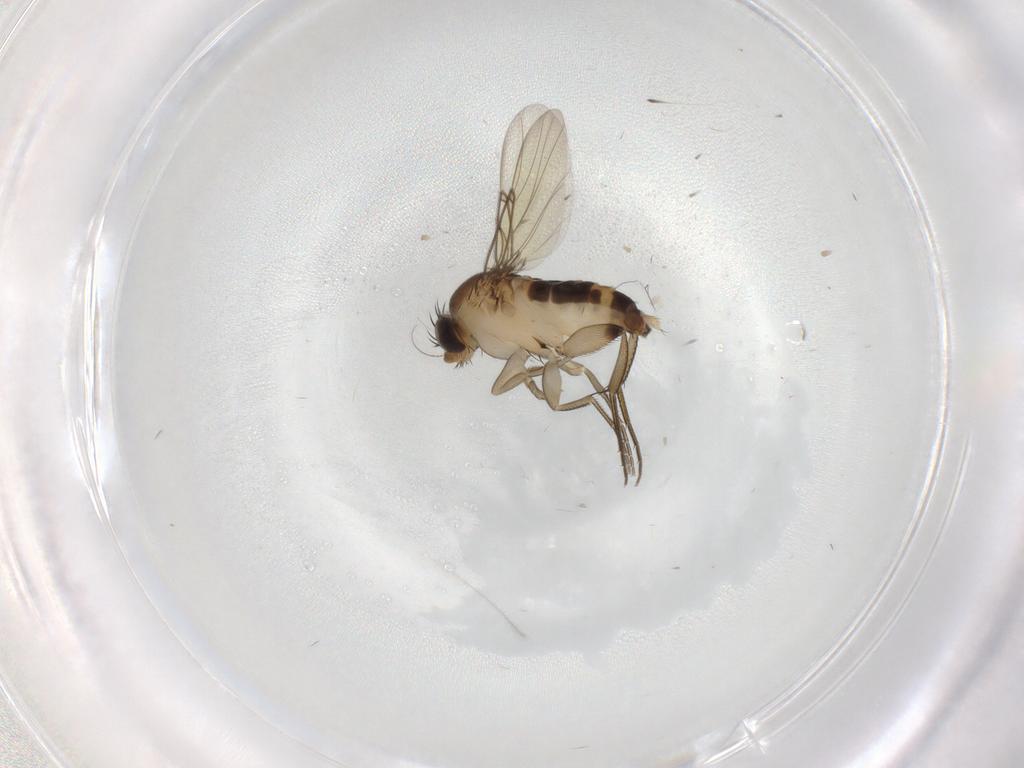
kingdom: Animalia
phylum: Arthropoda
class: Insecta
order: Diptera
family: Phoridae
